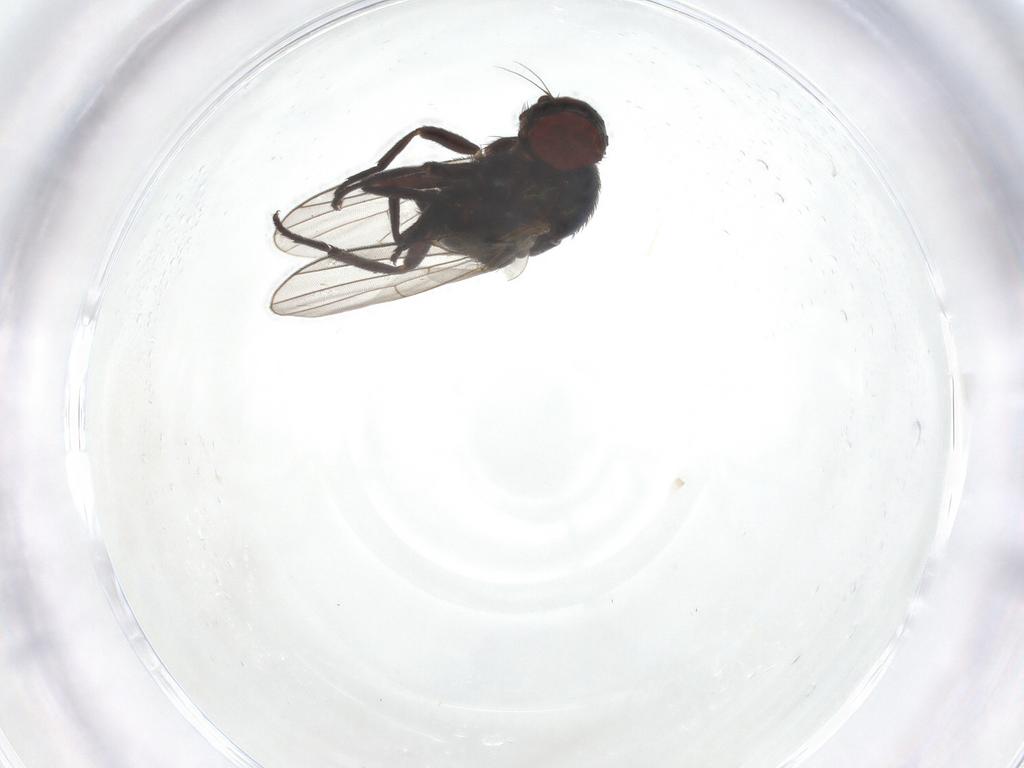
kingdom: Animalia
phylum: Arthropoda
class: Insecta
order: Diptera
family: Agromyzidae
